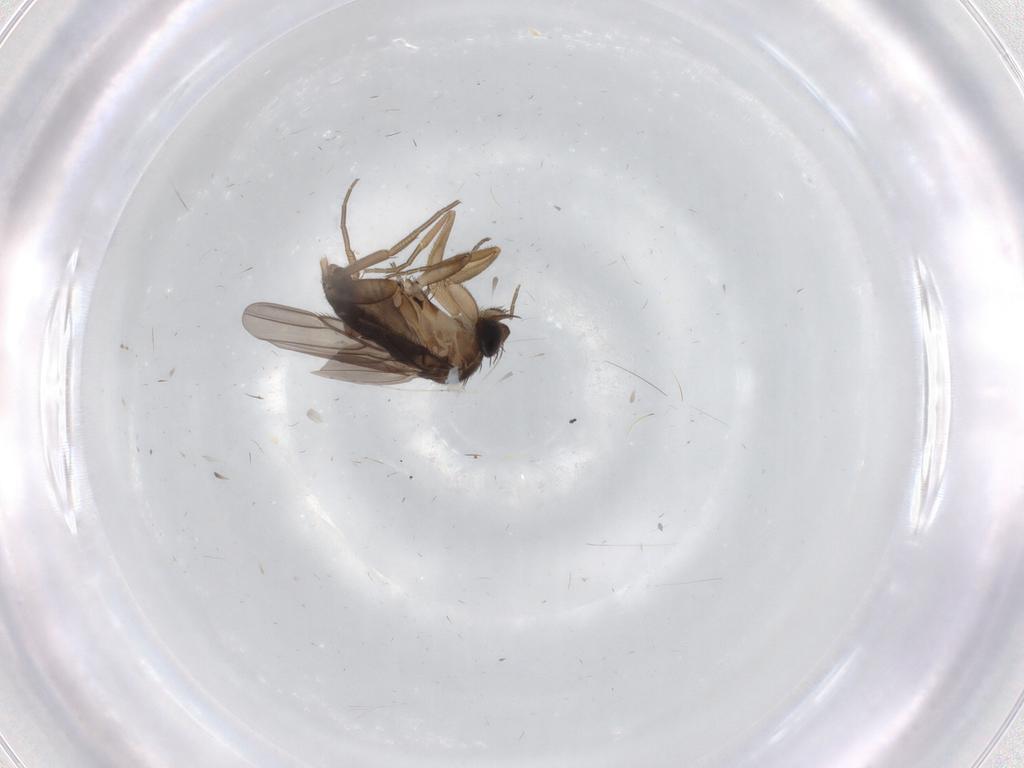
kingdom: Animalia
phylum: Arthropoda
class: Insecta
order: Diptera
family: Phoridae
